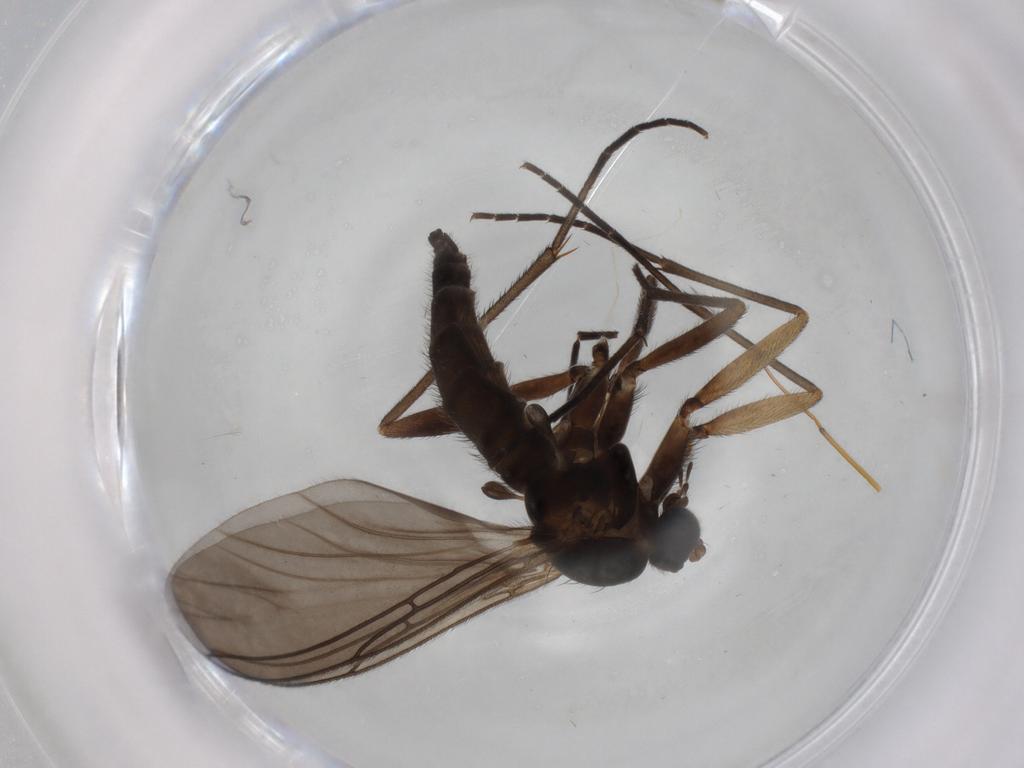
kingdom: Animalia
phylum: Arthropoda
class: Insecta
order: Diptera
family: Sciaridae
